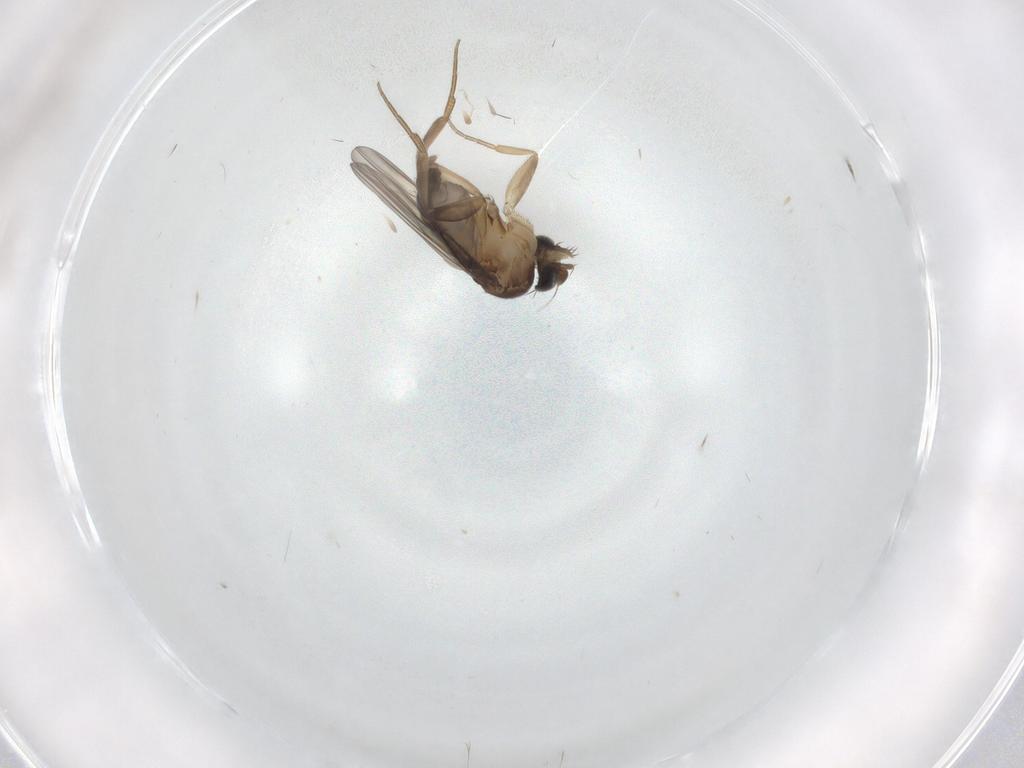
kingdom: Animalia
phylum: Arthropoda
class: Insecta
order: Diptera
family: Phoridae
